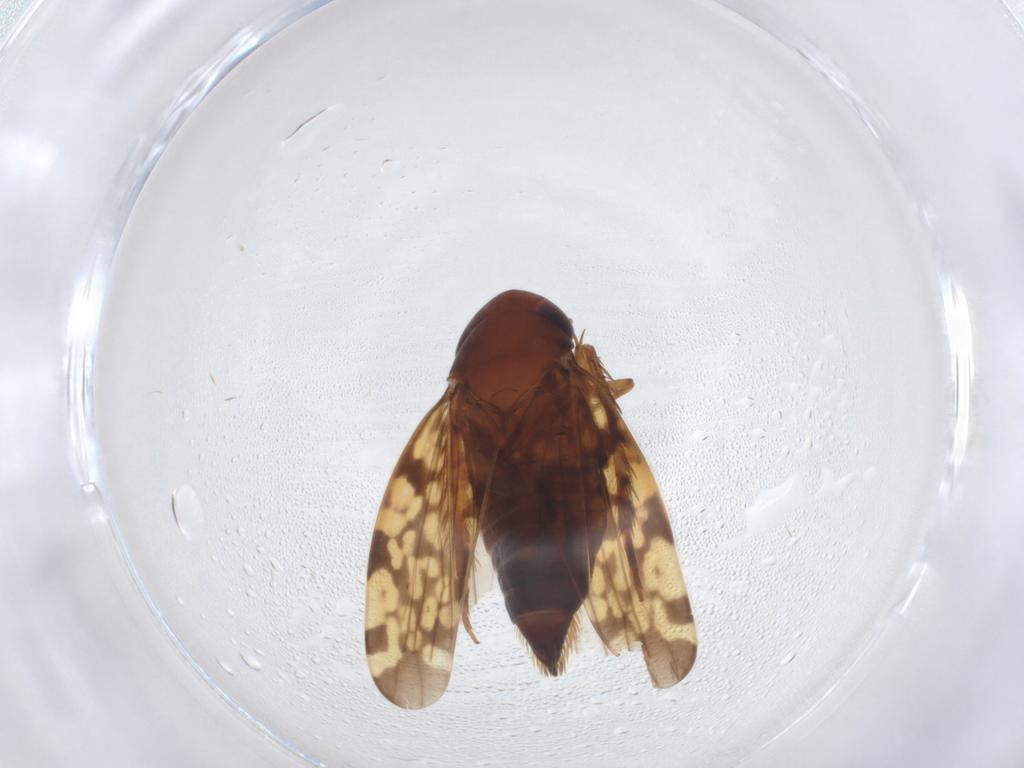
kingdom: Animalia
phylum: Arthropoda
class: Insecta
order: Hemiptera
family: Cicadellidae
